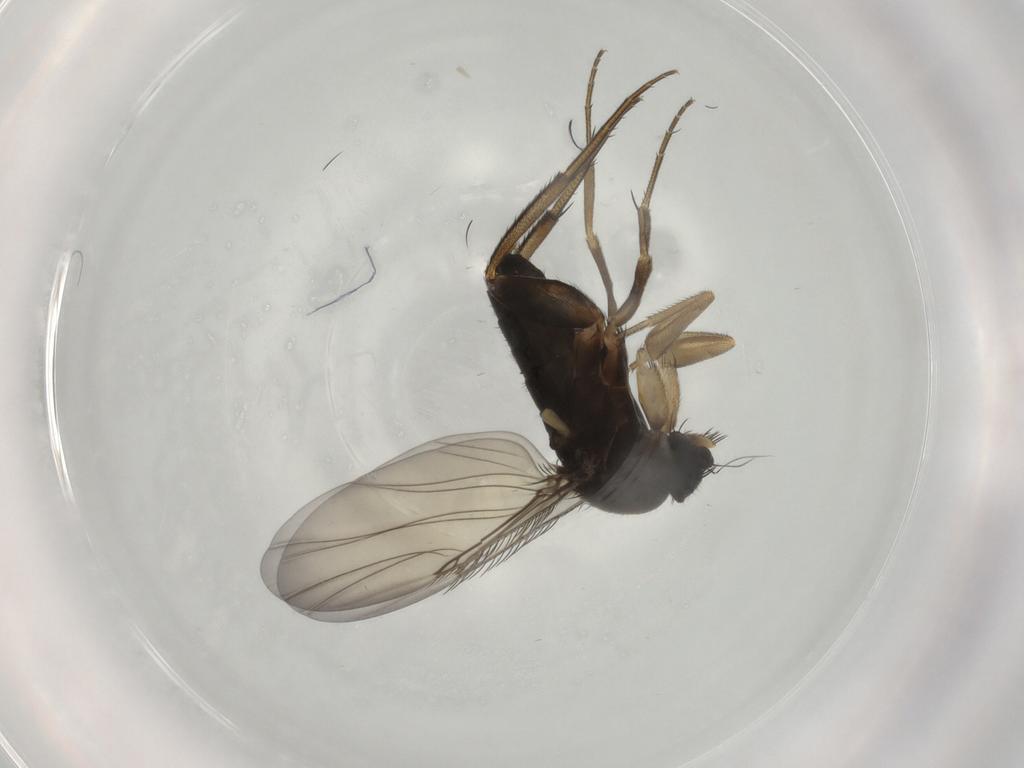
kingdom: Animalia
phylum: Arthropoda
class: Insecta
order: Diptera
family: Phoridae
